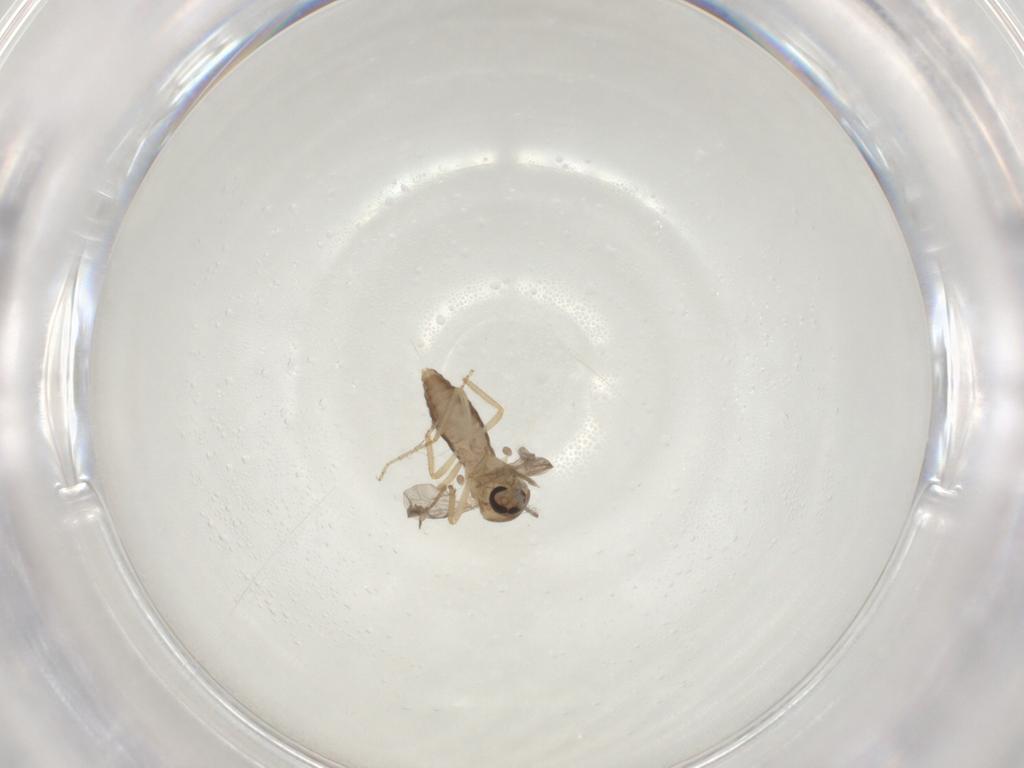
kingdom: Animalia
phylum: Arthropoda
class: Insecta
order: Diptera
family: Ceratopogonidae
